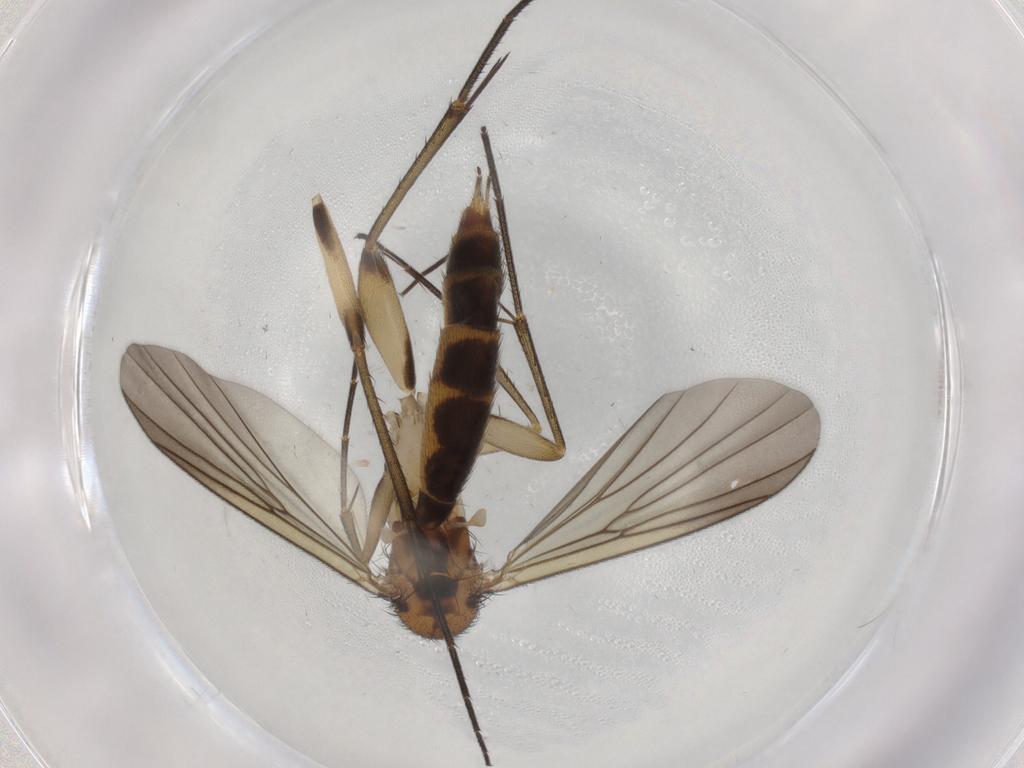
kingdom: Animalia
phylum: Arthropoda
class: Insecta
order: Diptera
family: Mycetophilidae
